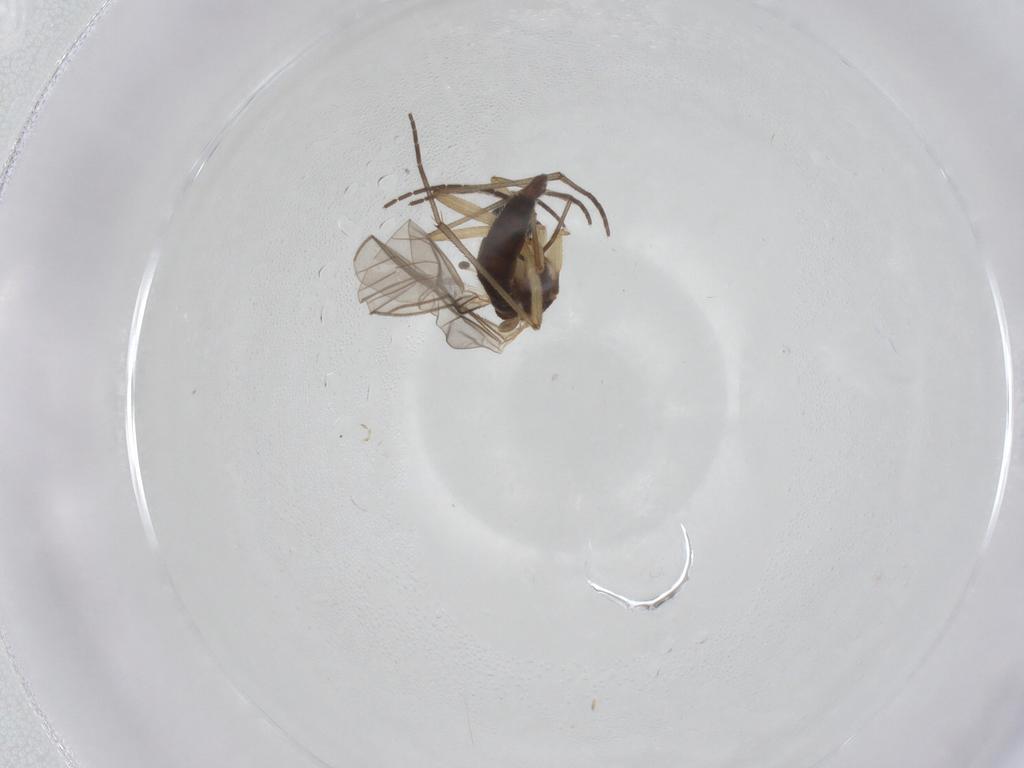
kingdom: Animalia
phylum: Arthropoda
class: Insecta
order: Diptera
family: Sciaridae
